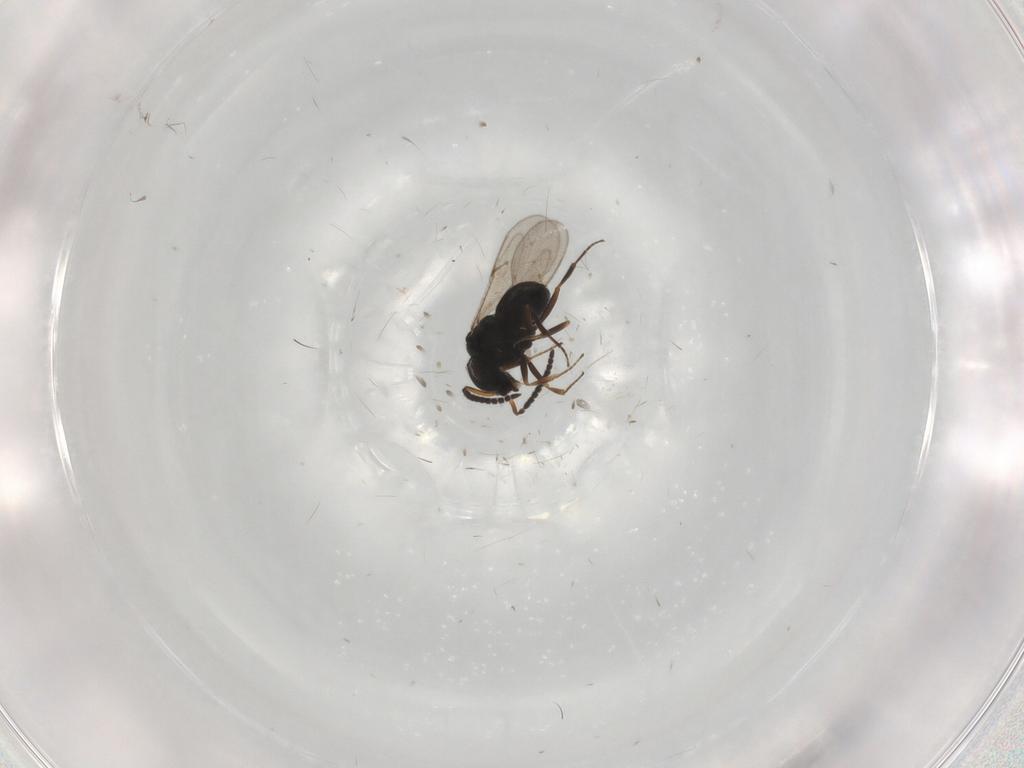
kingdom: Animalia
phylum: Arthropoda
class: Insecta
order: Hymenoptera
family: Scelionidae
